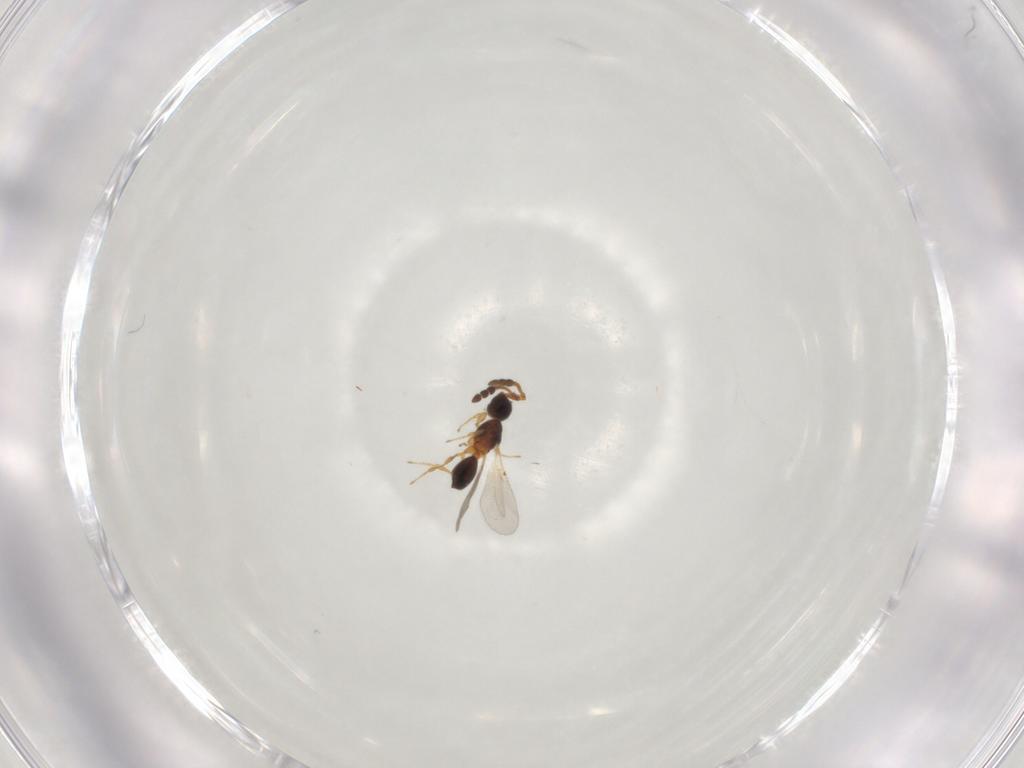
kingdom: Animalia
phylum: Arthropoda
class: Insecta
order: Hymenoptera
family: Diapriidae
